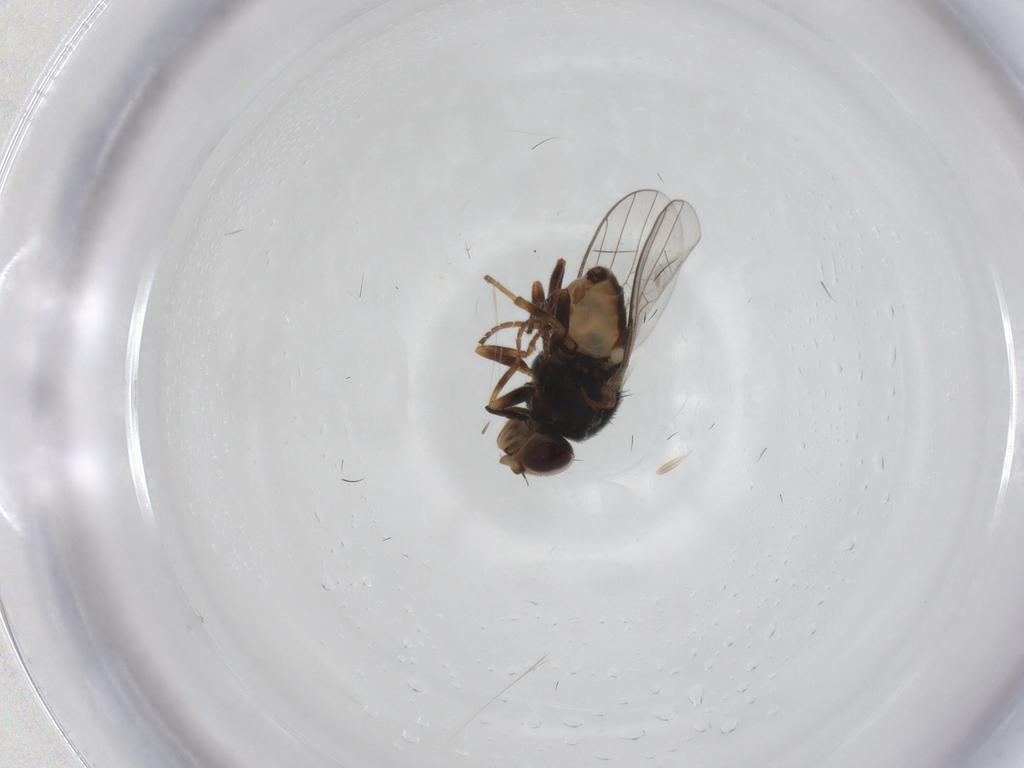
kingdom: Animalia
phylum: Arthropoda
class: Insecta
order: Diptera
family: Chloropidae
